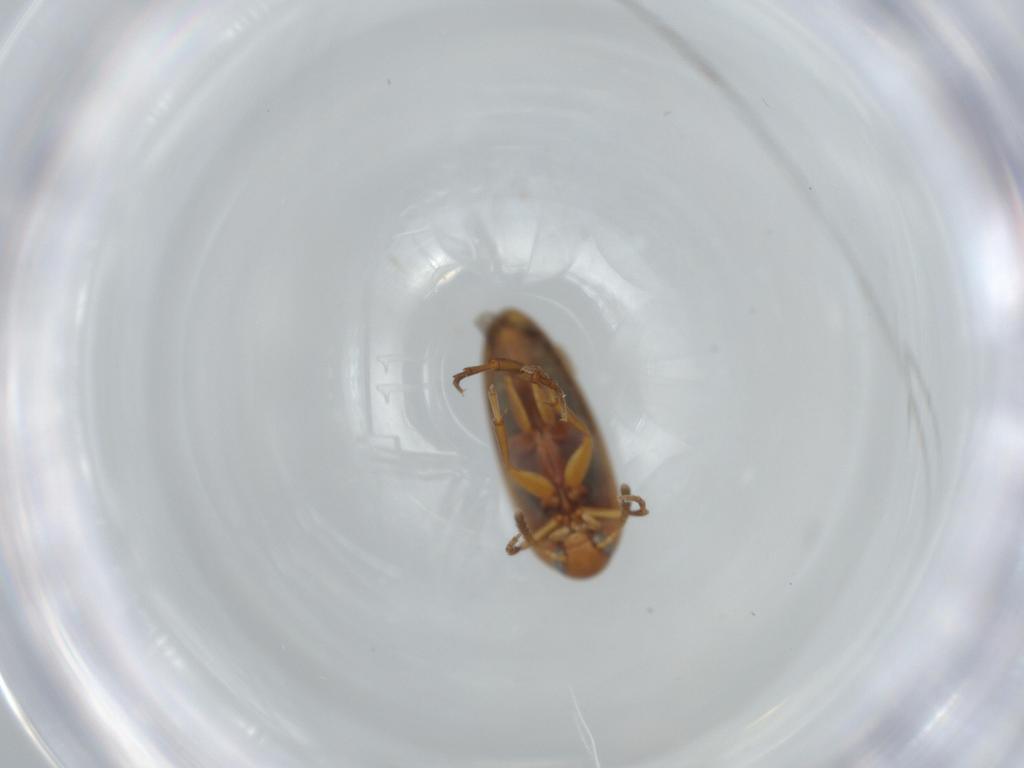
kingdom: Animalia
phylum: Arthropoda
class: Insecta
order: Coleoptera
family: Scraptiidae
